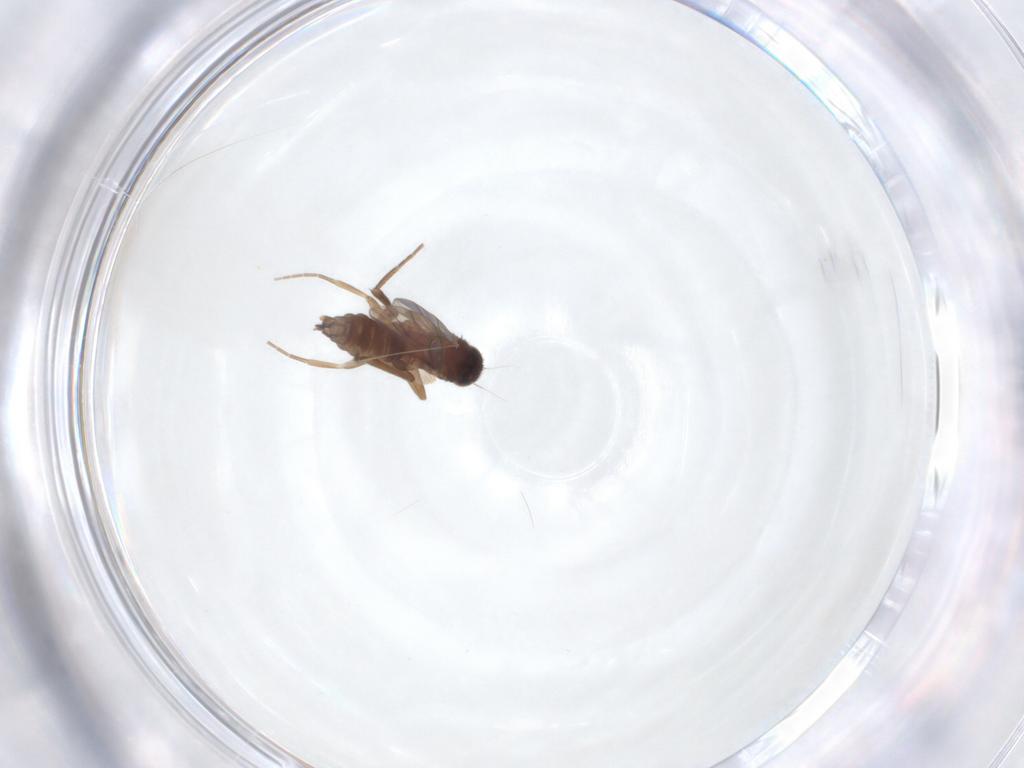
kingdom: Animalia
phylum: Arthropoda
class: Insecta
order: Diptera
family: Phoridae
